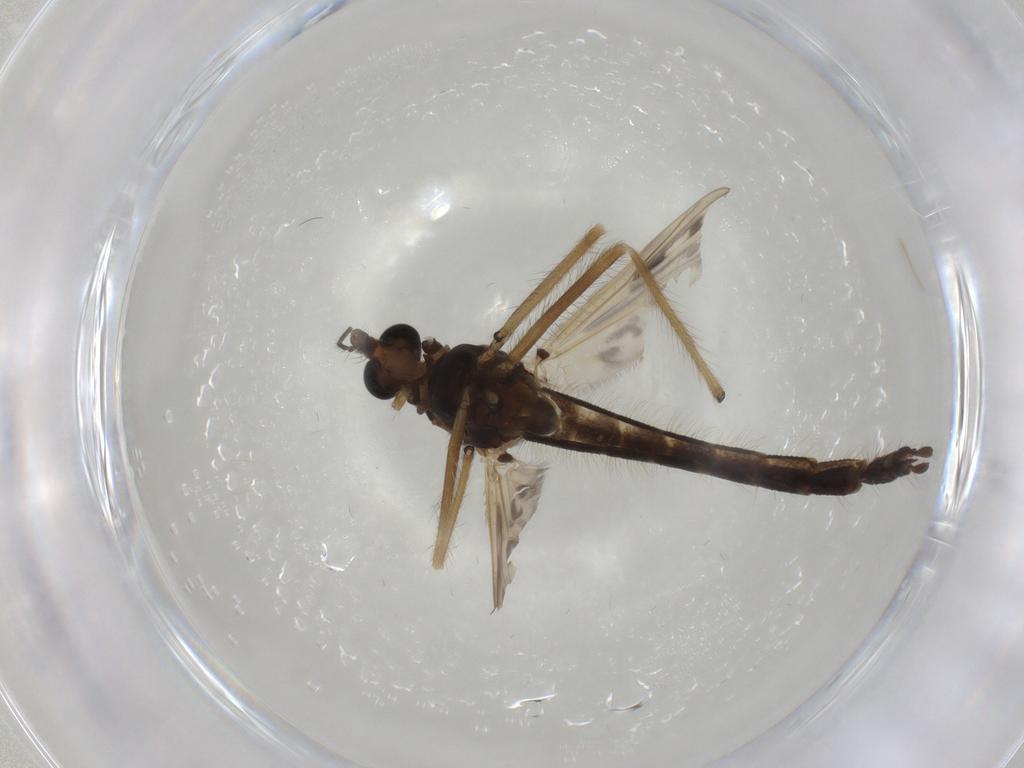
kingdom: Animalia
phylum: Arthropoda
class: Insecta
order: Diptera
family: Chironomidae
